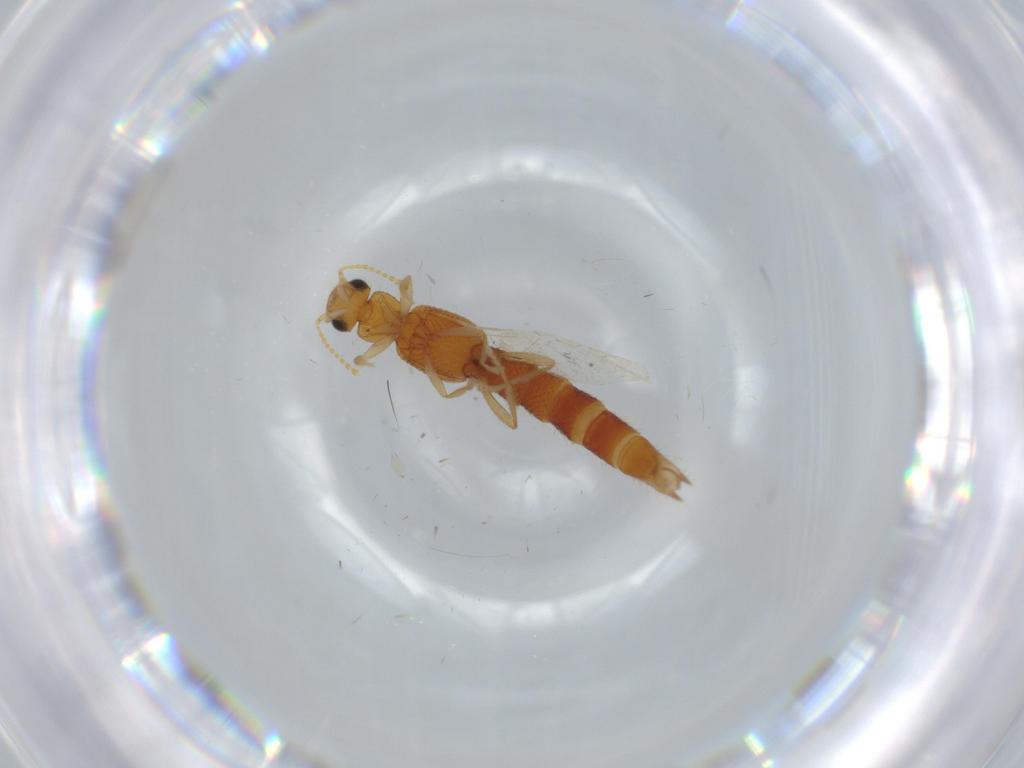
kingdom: Animalia
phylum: Arthropoda
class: Insecta
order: Coleoptera
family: Staphylinidae
